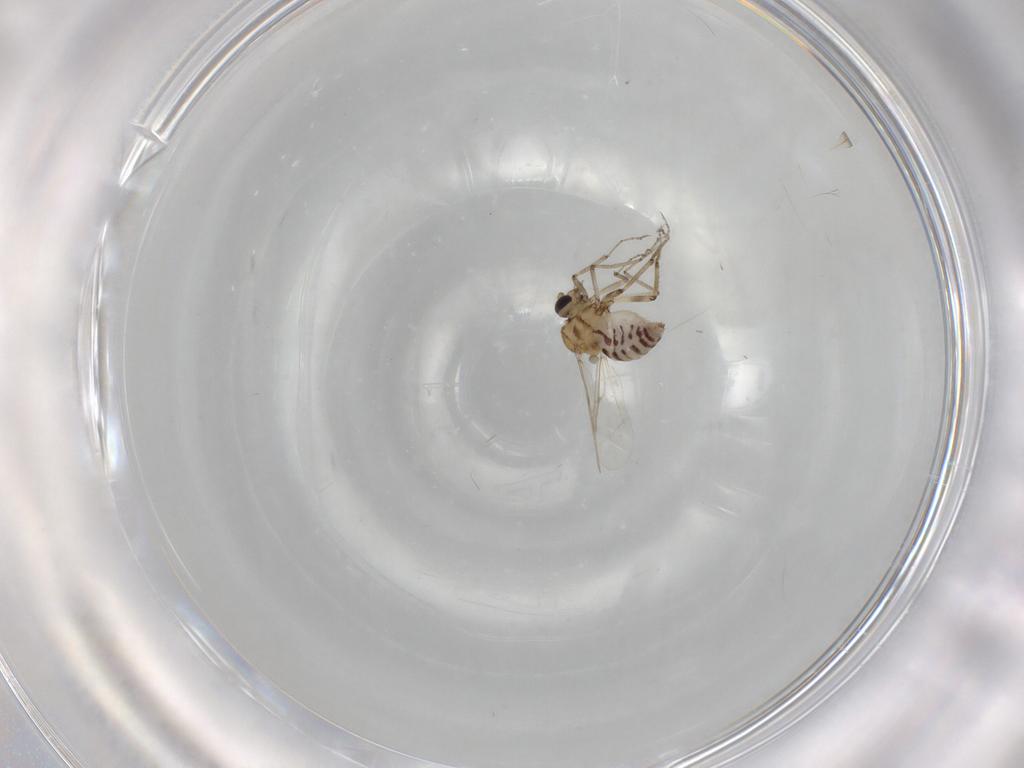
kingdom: Animalia
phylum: Arthropoda
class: Insecta
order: Diptera
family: Ceratopogonidae
